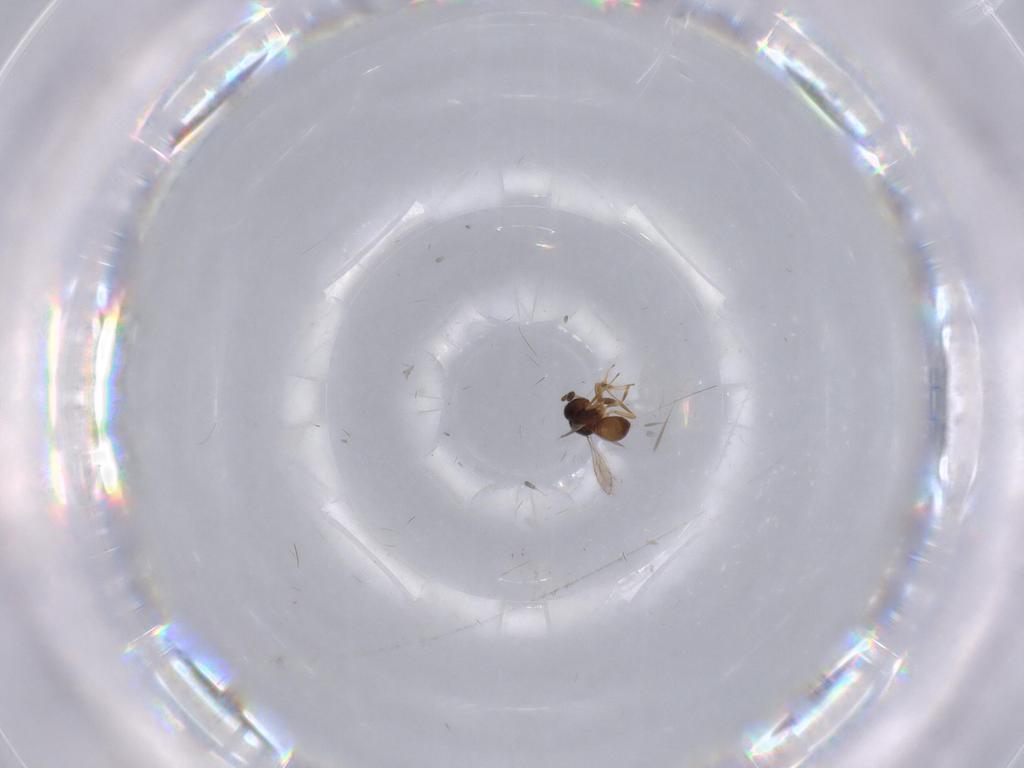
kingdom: Animalia
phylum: Arthropoda
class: Insecta
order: Hymenoptera
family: Scelionidae
